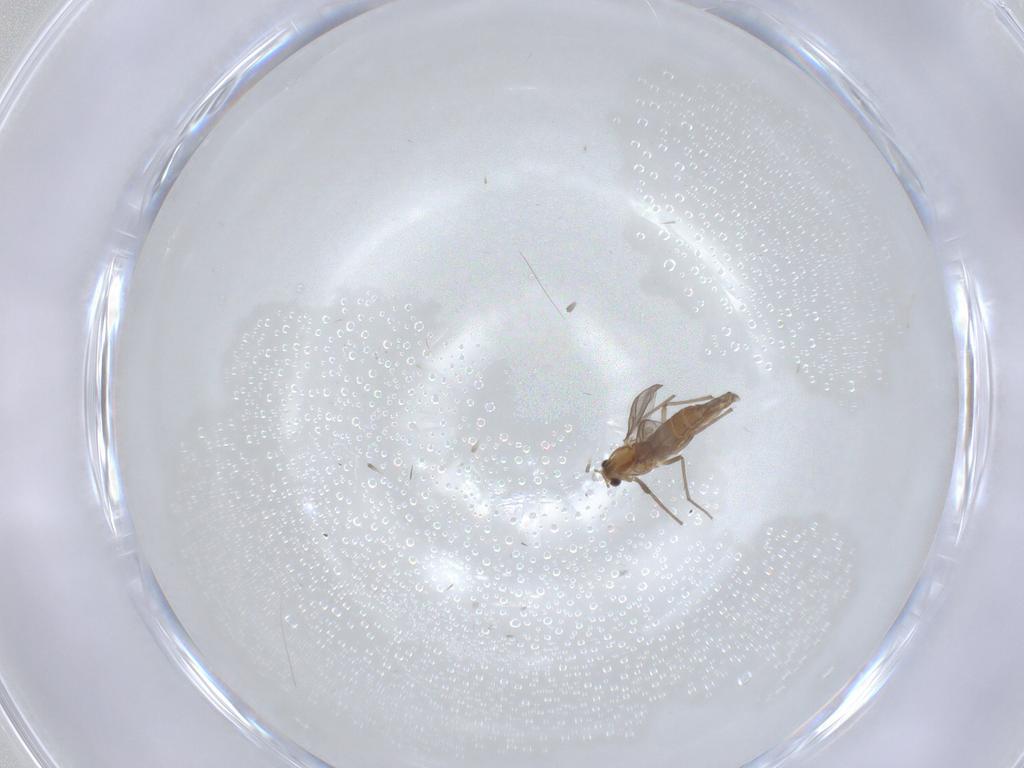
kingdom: Animalia
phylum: Arthropoda
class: Insecta
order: Diptera
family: Chironomidae
